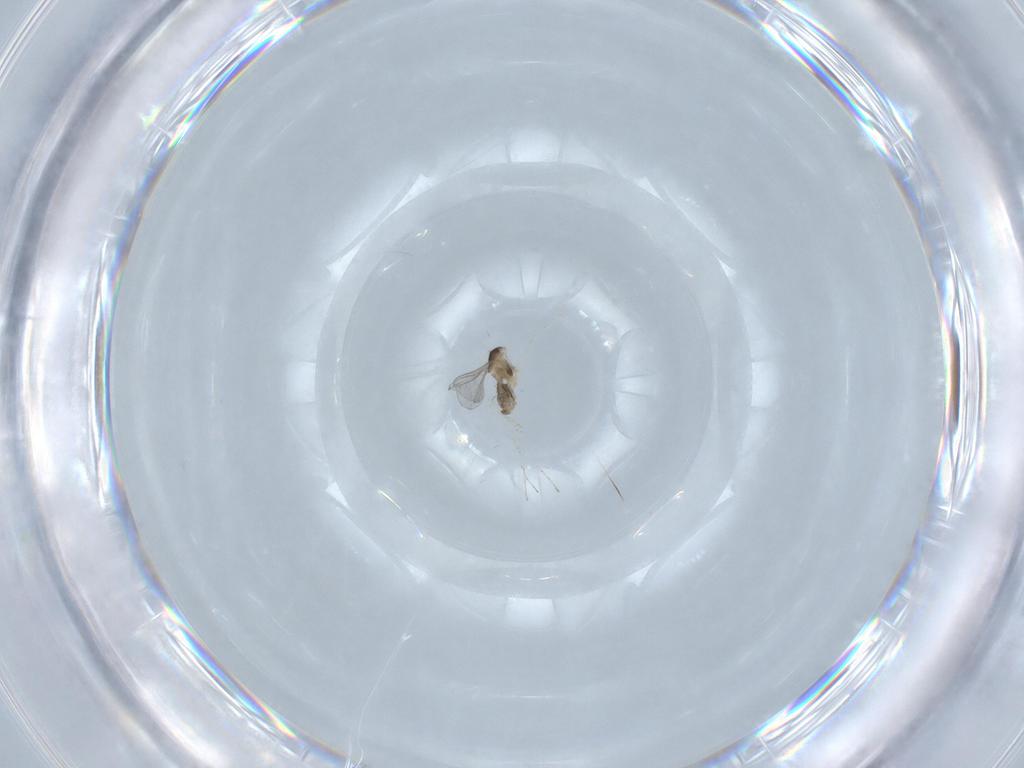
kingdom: Animalia
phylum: Arthropoda
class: Insecta
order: Diptera
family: Cecidomyiidae
